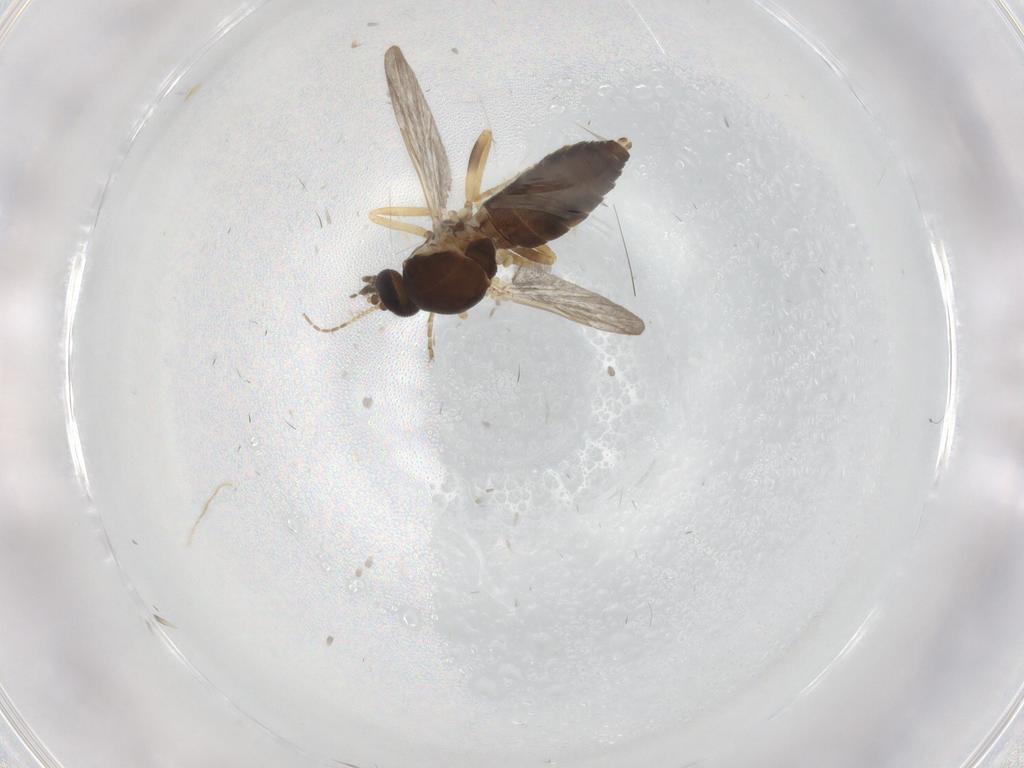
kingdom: Animalia
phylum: Arthropoda
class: Insecta
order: Diptera
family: Ceratopogonidae
